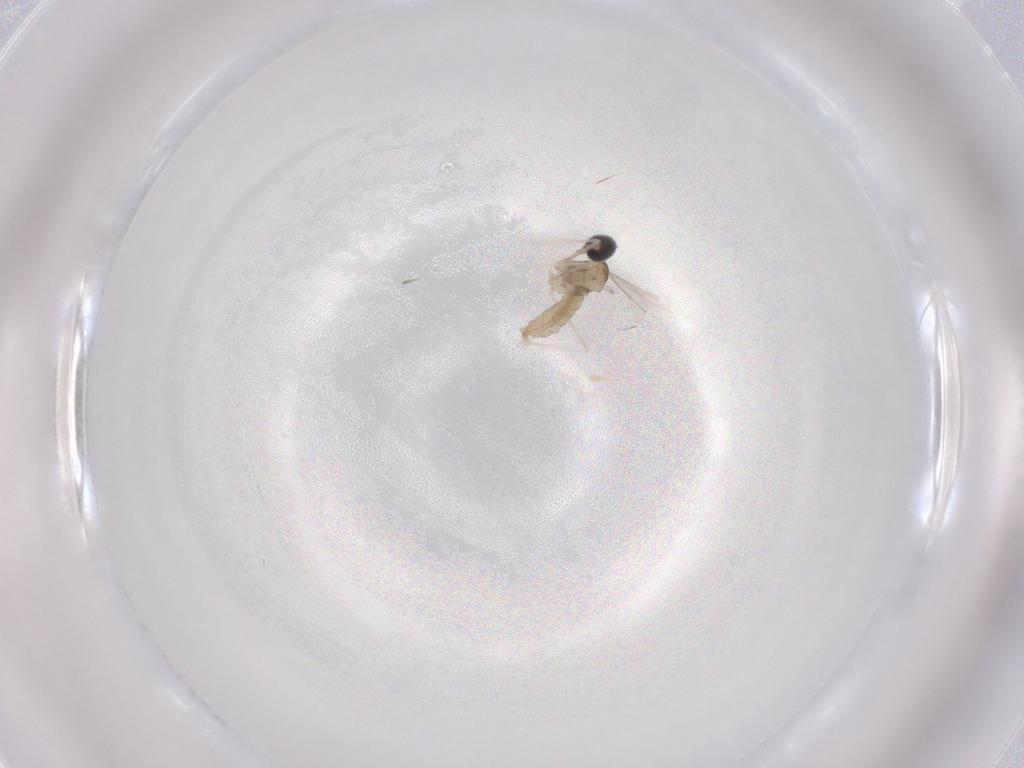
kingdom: Animalia
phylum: Arthropoda
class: Insecta
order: Diptera
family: Cecidomyiidae
